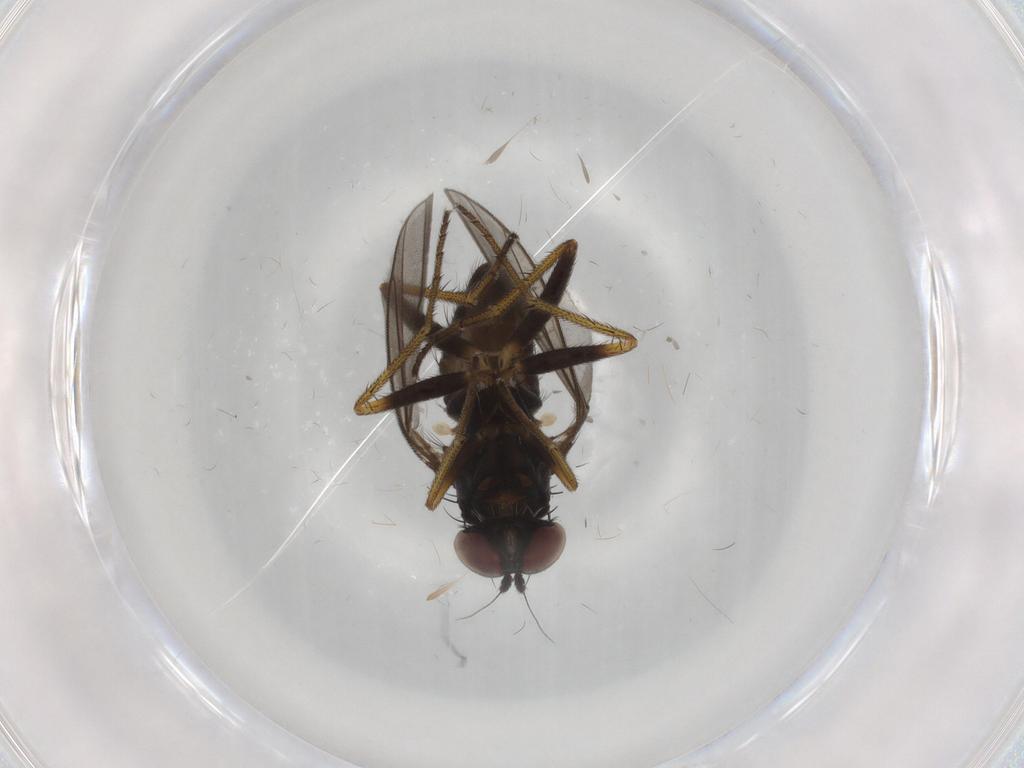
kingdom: Animalia
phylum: Arthropoda
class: Insecta
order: Diptera
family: Dolichopodidae
